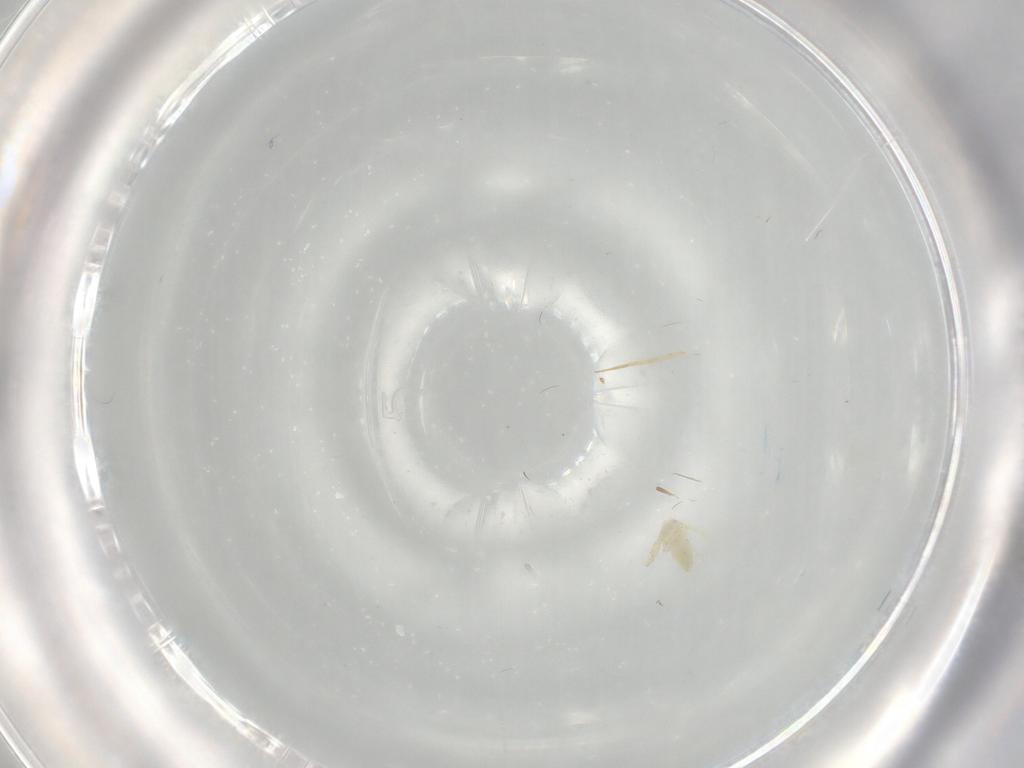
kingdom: Animalia
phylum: Arthropoda
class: Insecta
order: Hemiptera
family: Aleyrodidae
